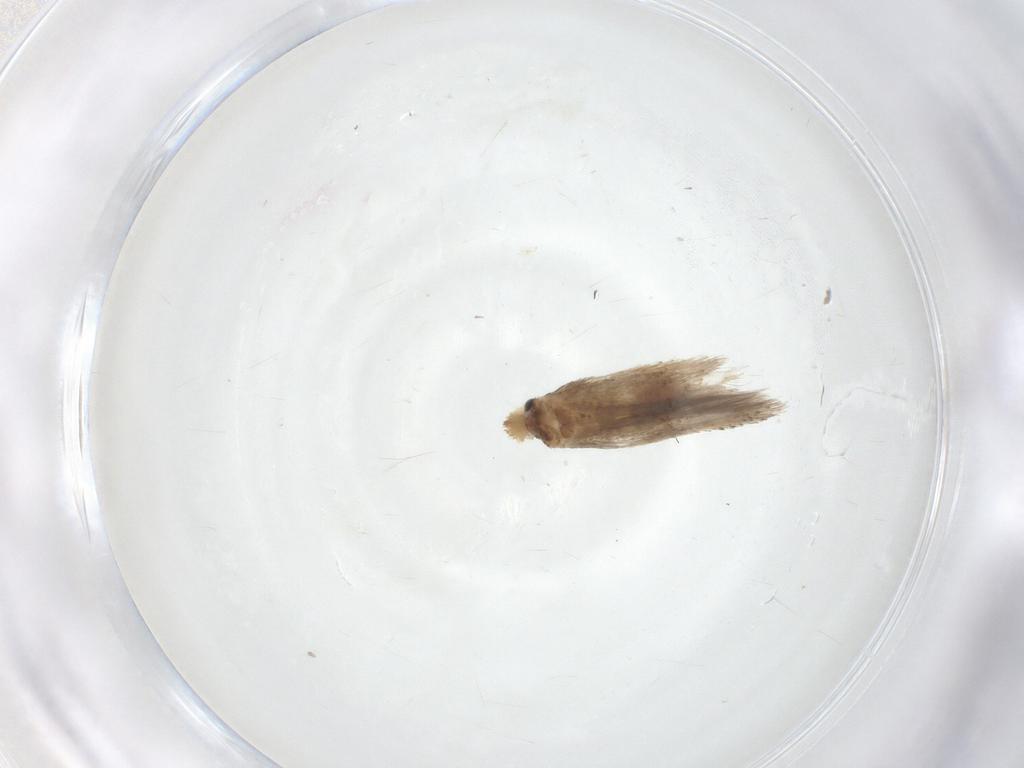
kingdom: Animalia
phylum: Arthropoda
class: Insecta
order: Lepidoptera
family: Nepticulidae
